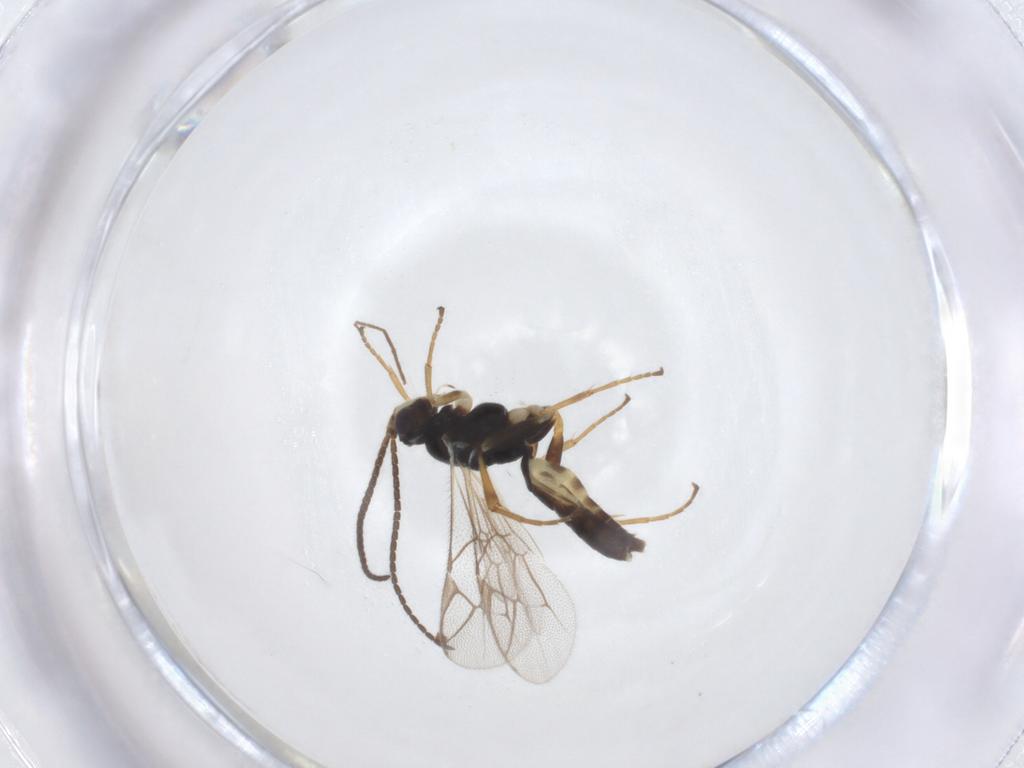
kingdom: Animalia
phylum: Arthropoda
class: Insecta
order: Hymenoptera
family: Ichneumonidae
